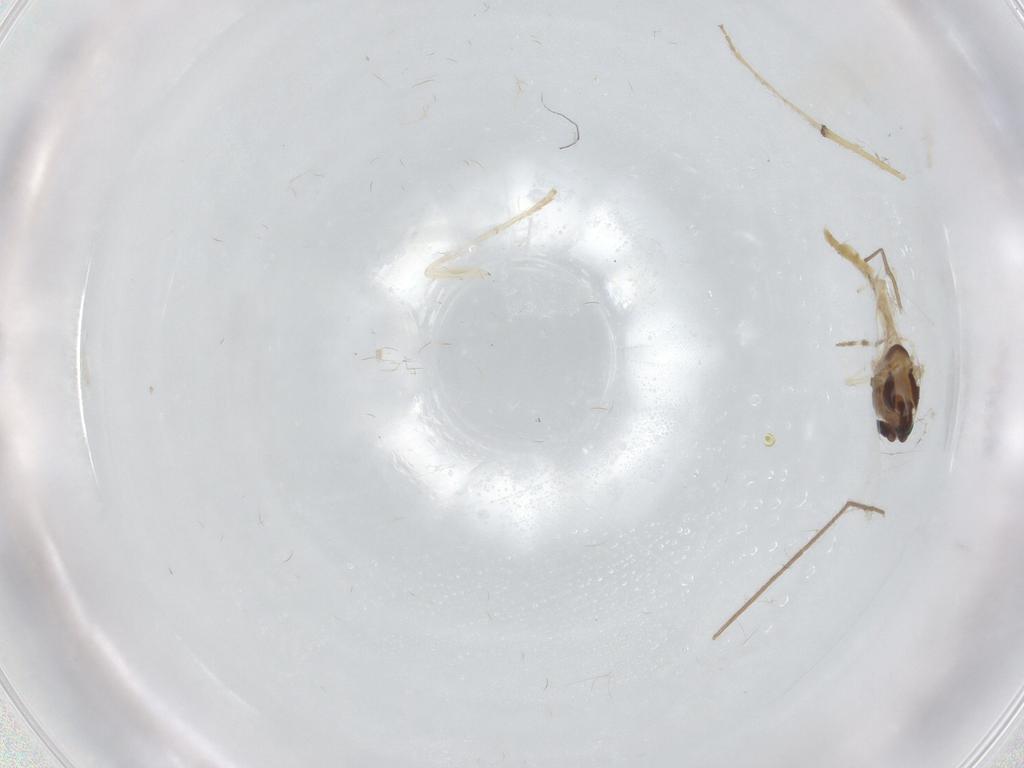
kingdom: Animalia
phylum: Arthropoda
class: Insecta
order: Diptera
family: Chironomidae
